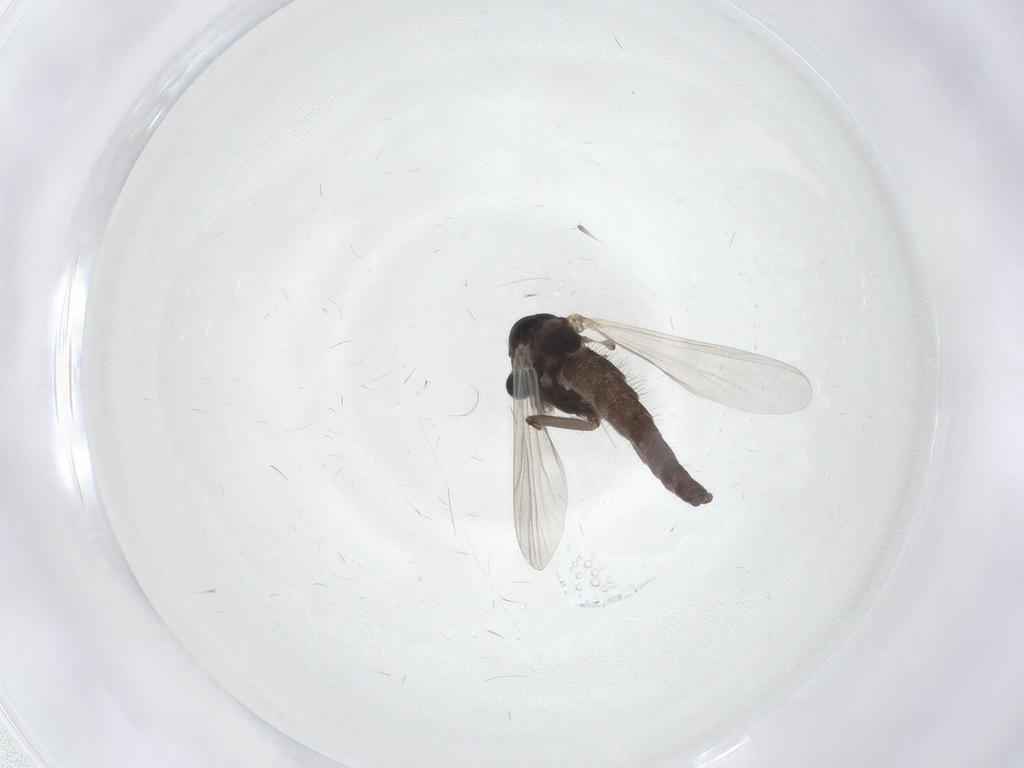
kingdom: Animalia
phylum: Arthropoda
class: Insecta
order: Diptera
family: Chironomidae
